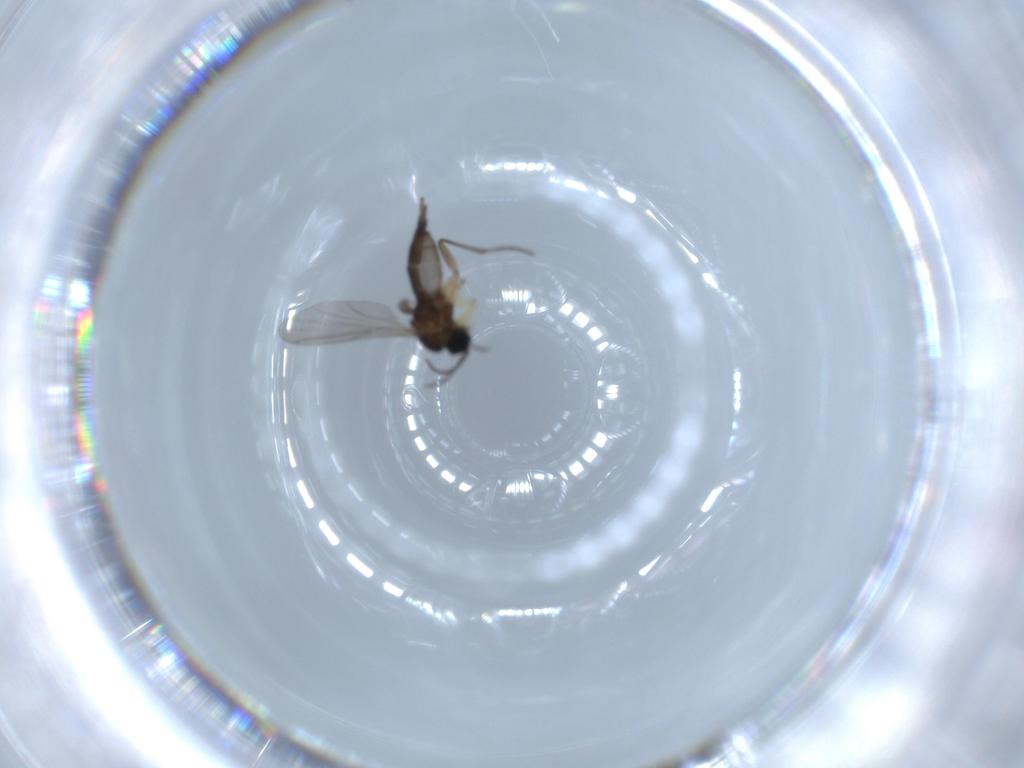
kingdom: Animalia
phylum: Arthropoda
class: Insecta
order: Diptera
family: Sciaridae
